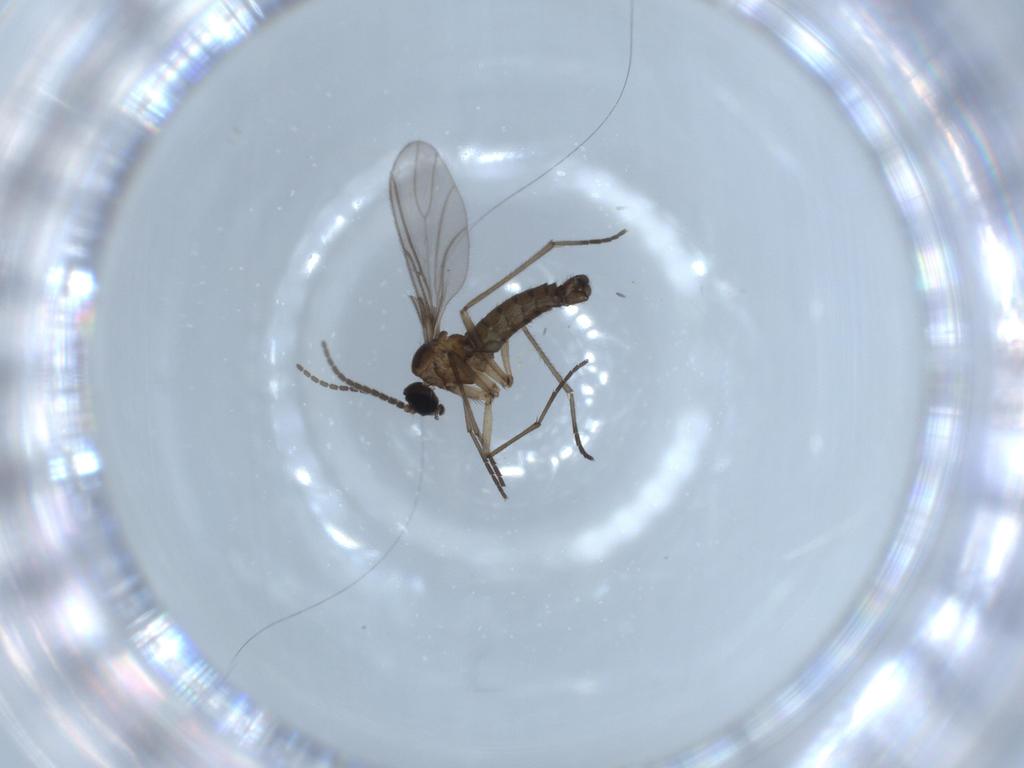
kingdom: Animalia
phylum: Arthropoda
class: Insecta
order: Diptera
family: Sciaridae
